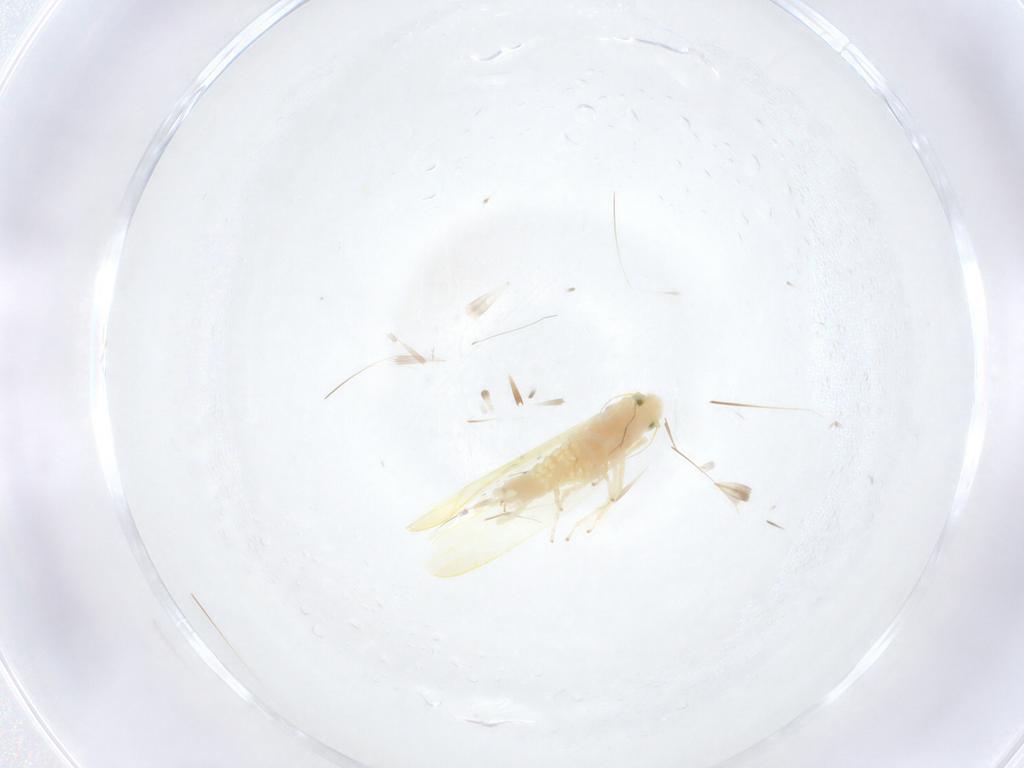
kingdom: Animalia
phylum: Arthropoda
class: Insecta
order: Hemiptera
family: Cicadellidae
